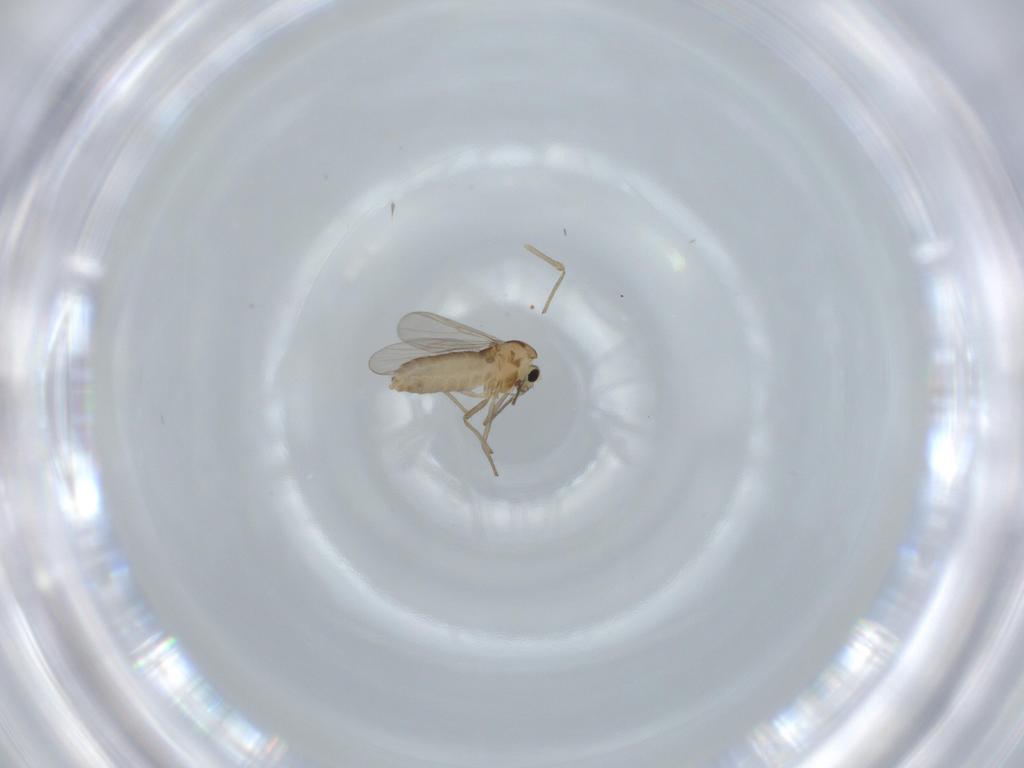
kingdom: Animalia
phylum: Arthropoda
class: Insecta
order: Diptera
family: Chironomidae
